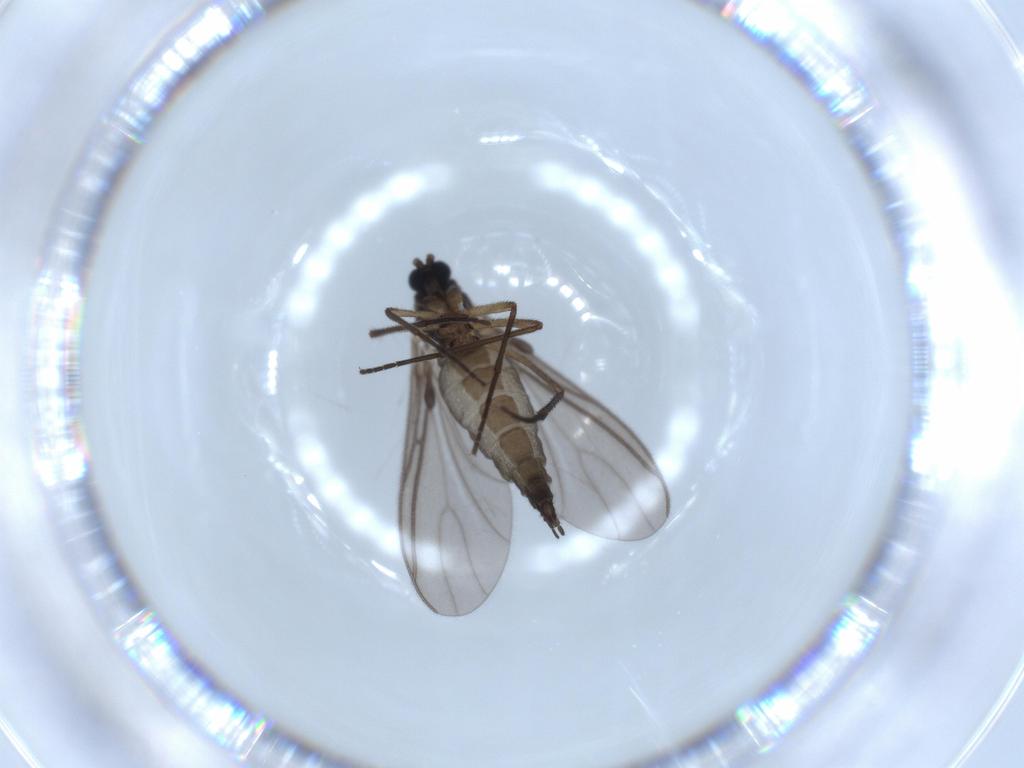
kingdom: Animalia
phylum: Arthropoda
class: Insecta
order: Diptera
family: Sciaridae
